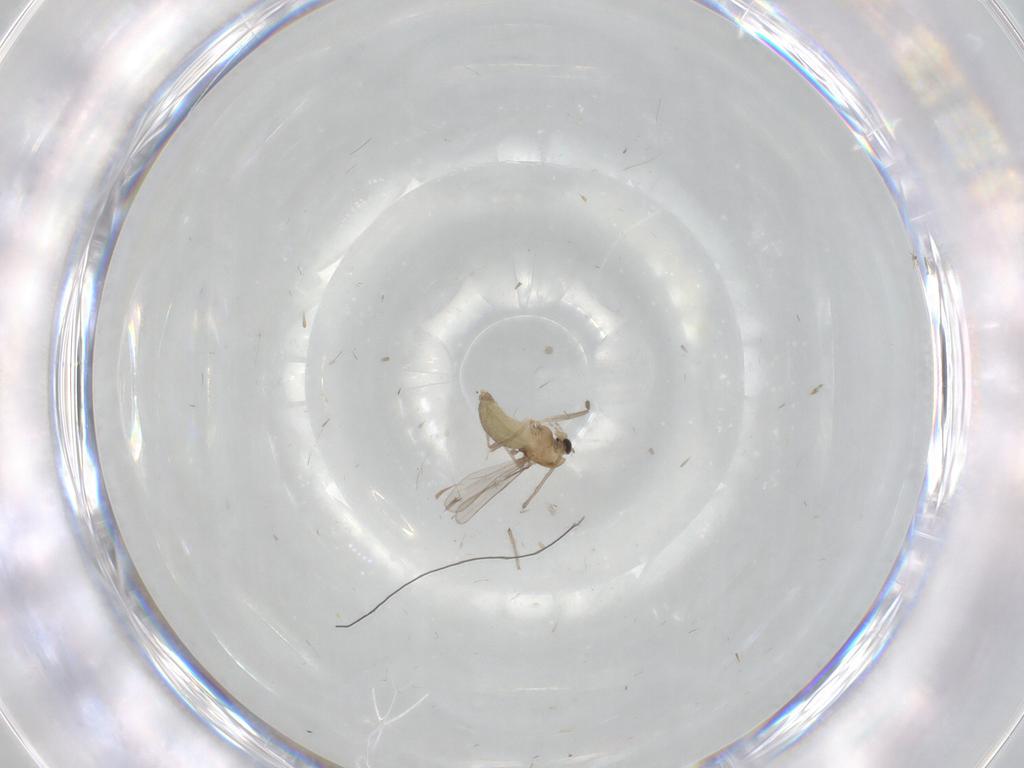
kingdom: Animalia
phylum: Arthropoda
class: Insecta
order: Diptera
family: Chironomidae
